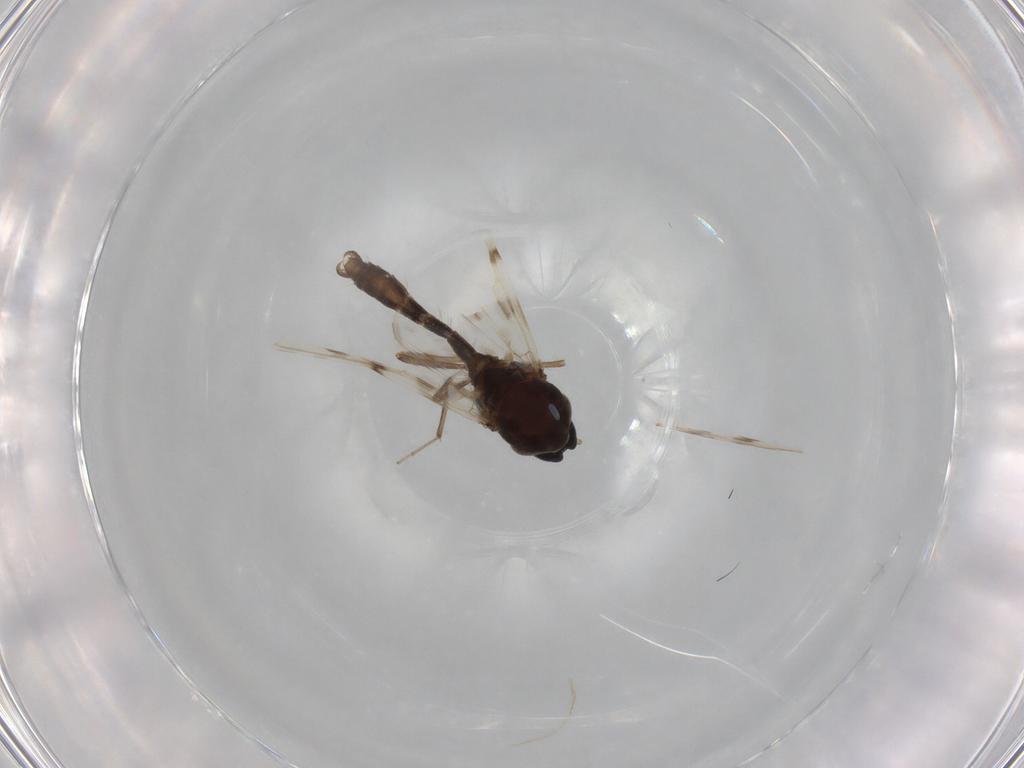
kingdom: Animalia
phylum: Arthropoda
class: Insecta
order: Diptera
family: Ceratopogonidae
